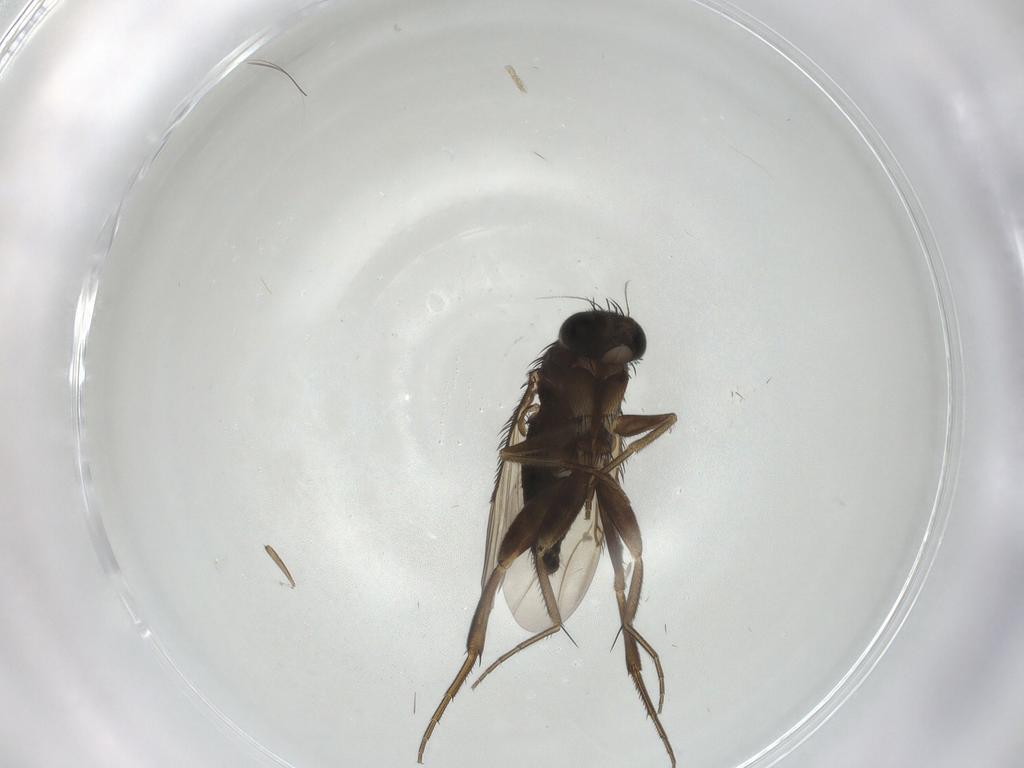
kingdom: Animalia
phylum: Arthropoda
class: Insecta
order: Diptera
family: Phoridae
